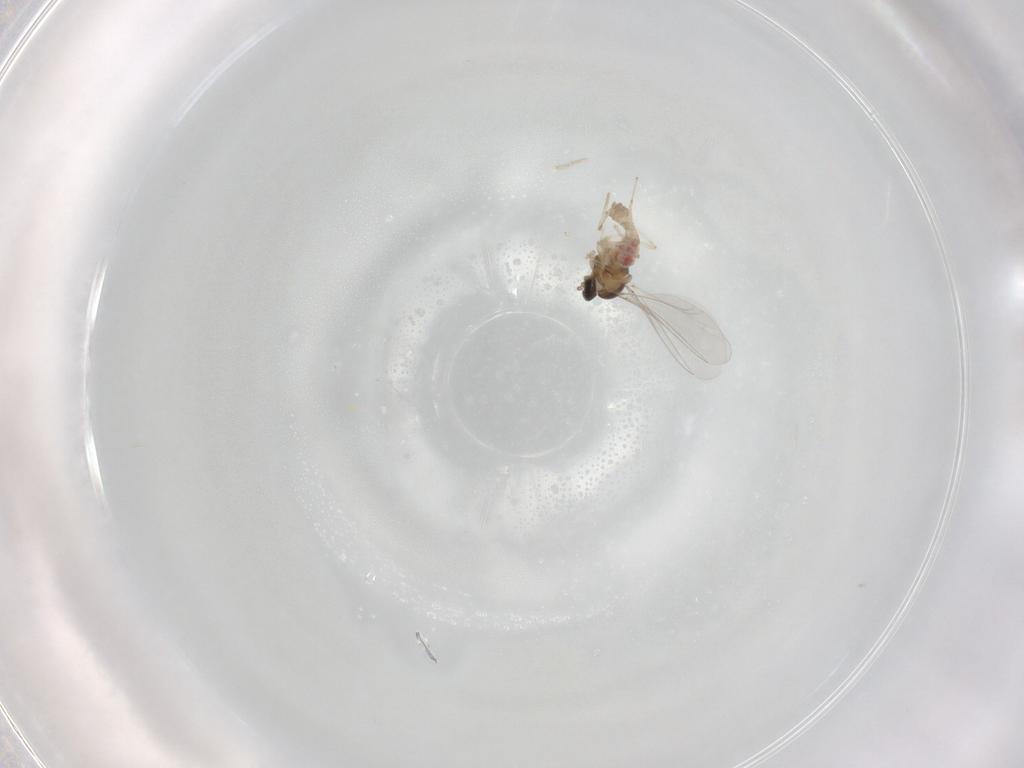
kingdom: Animalia
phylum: Arthropoda
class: Insecta
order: Diptera
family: Cecidomyiidae
